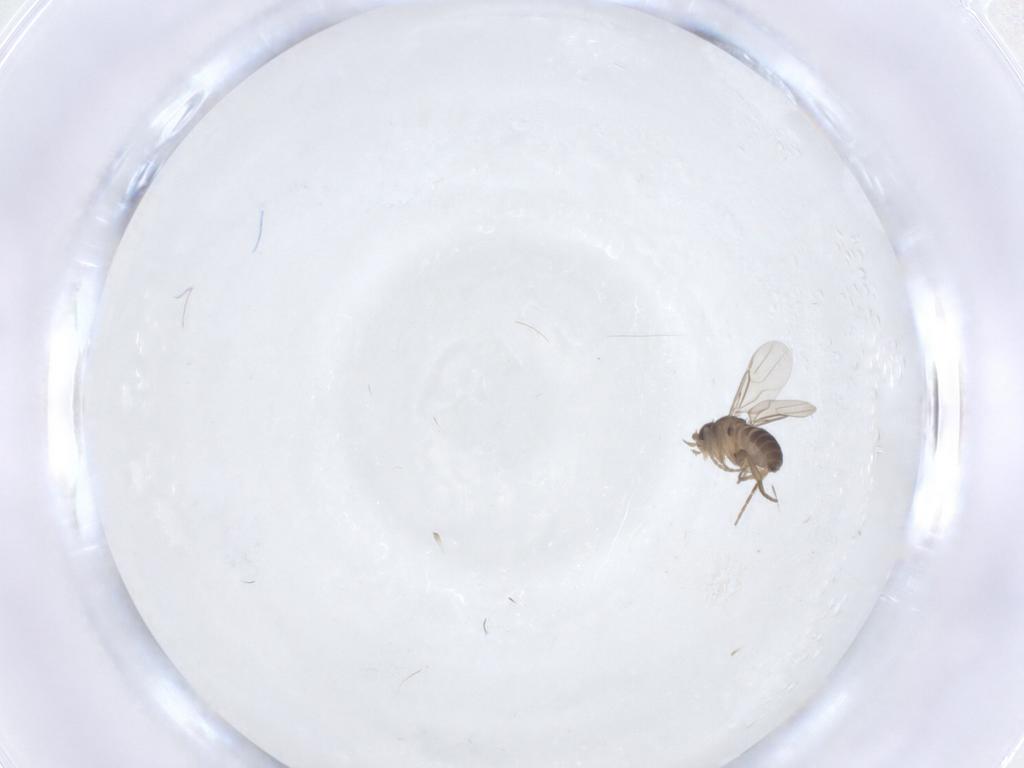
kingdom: Animalia
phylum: Arthropoda
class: Insecta
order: Diptera
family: Phoridae
